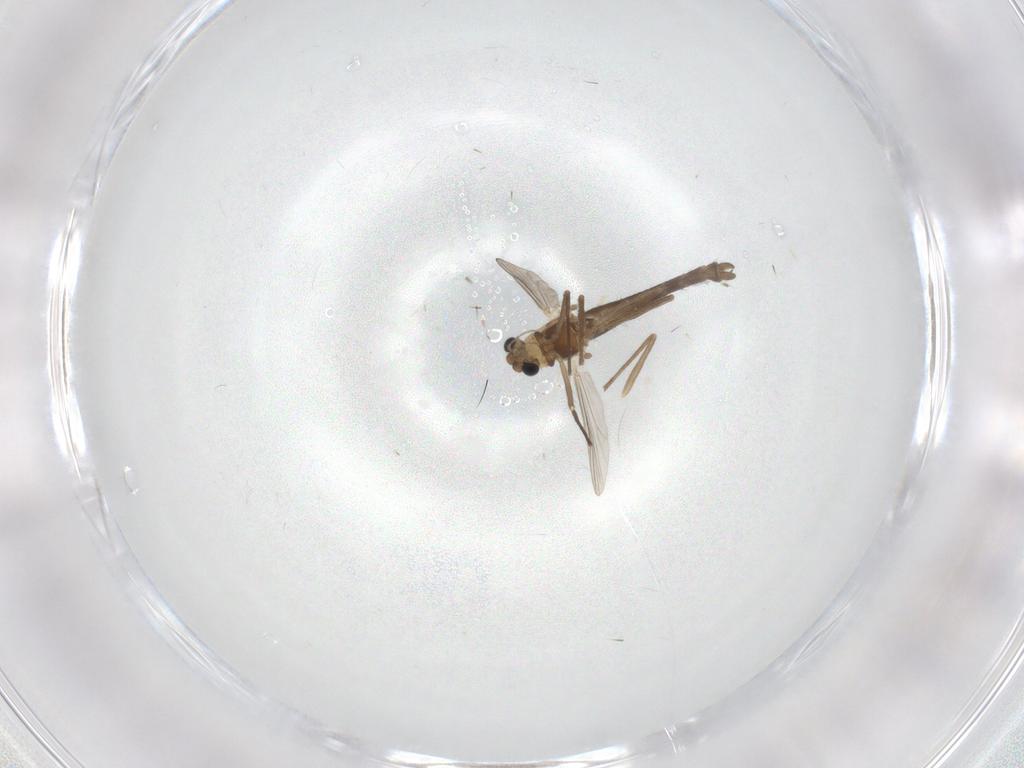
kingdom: Animalia
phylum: Arthropoda
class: Insecta
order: Diptera
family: Chironomidae
